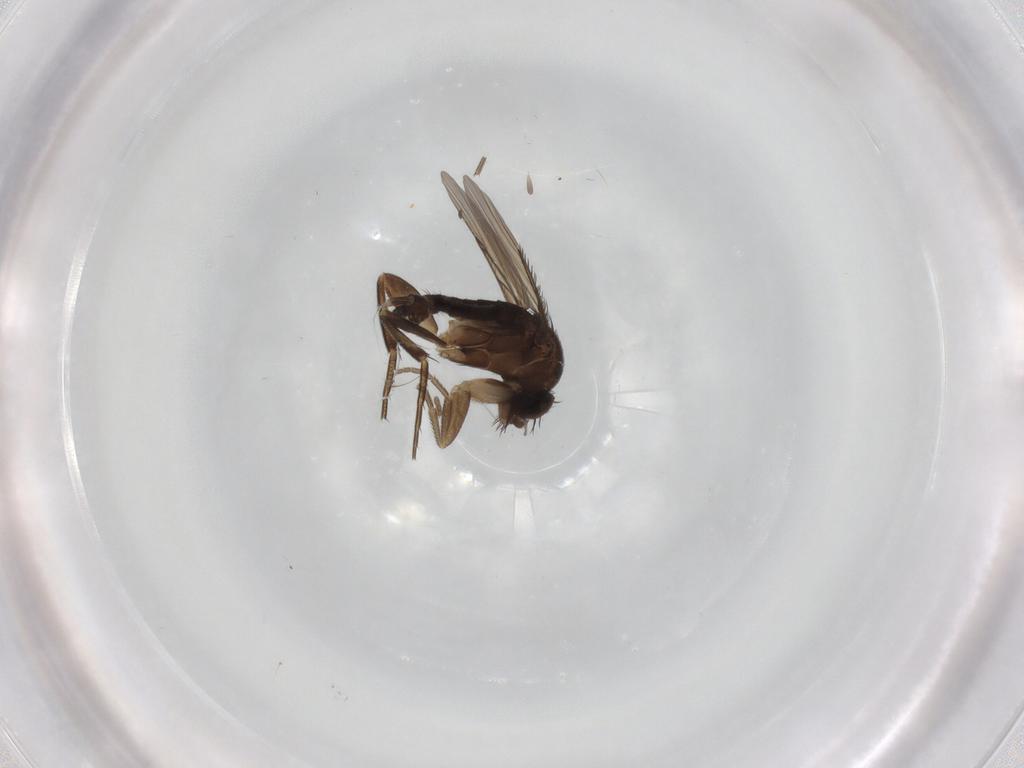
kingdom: Animalia
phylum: Arthropoda
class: Insecta
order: Diptera
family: Phoridae
